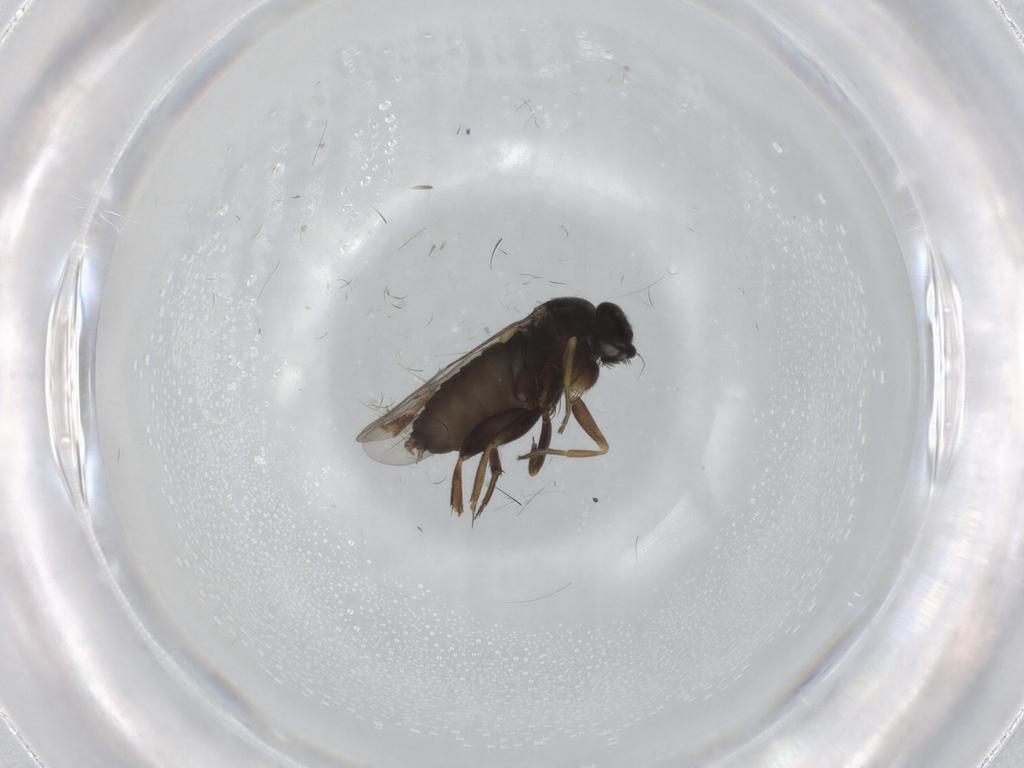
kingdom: Animalia
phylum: Arthropoda
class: Insecta
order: Diptera
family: Phoridae
